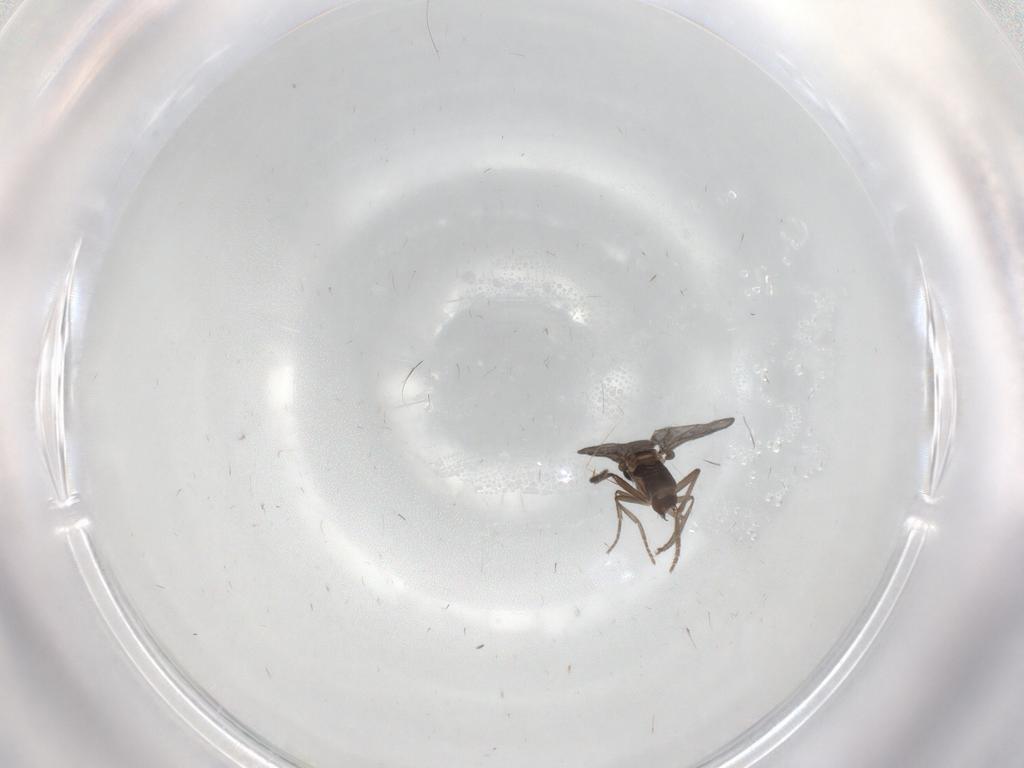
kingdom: Animalia
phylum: Arthropoda
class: Insecta
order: Diptera
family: Phoridae
